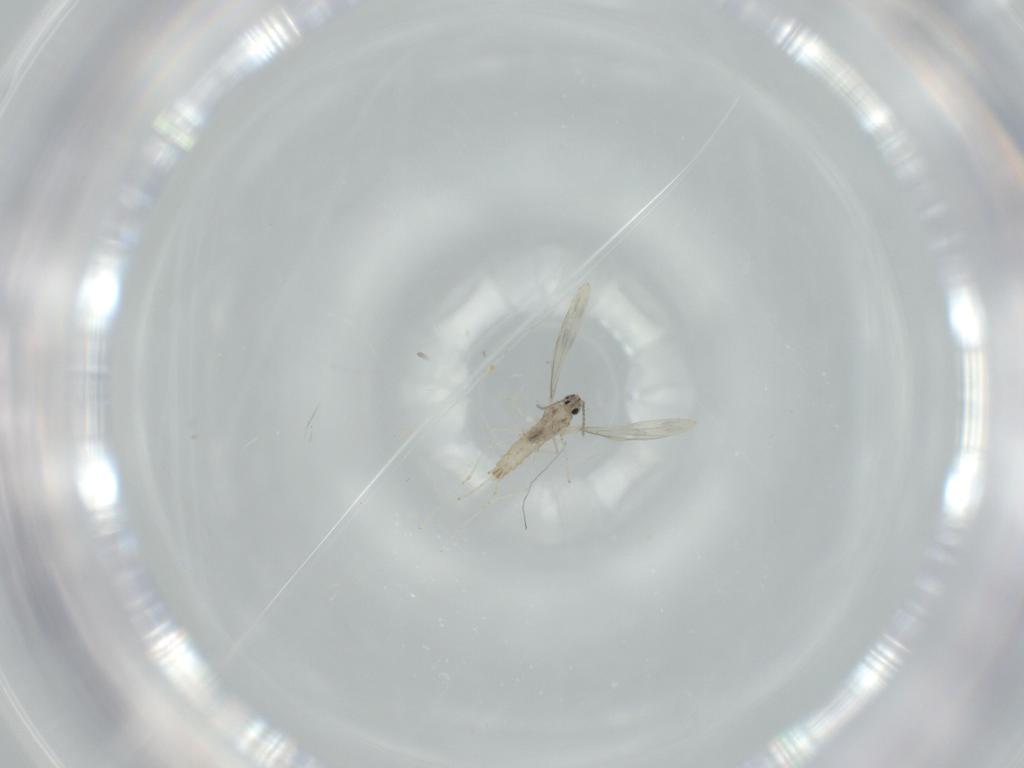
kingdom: Animalia
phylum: Arthropoda
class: Insecta
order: Diptera
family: Cecidomyiidae
